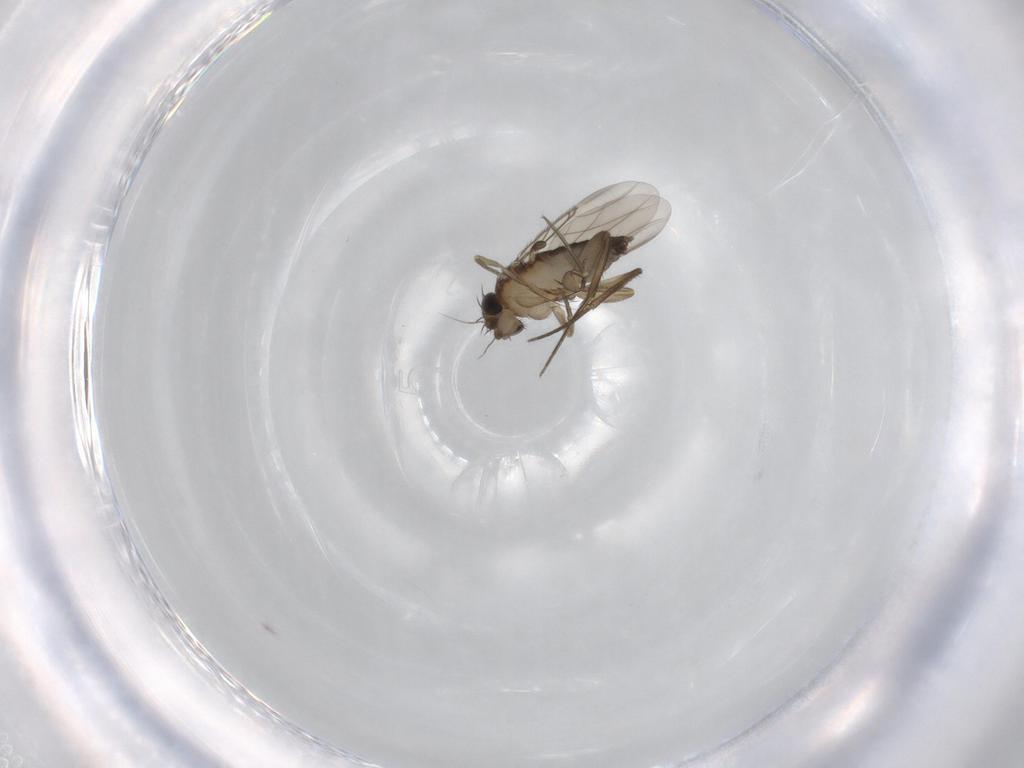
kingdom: Animalia
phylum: Arthropoda
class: Insecta
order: Diptera
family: Phoridae
